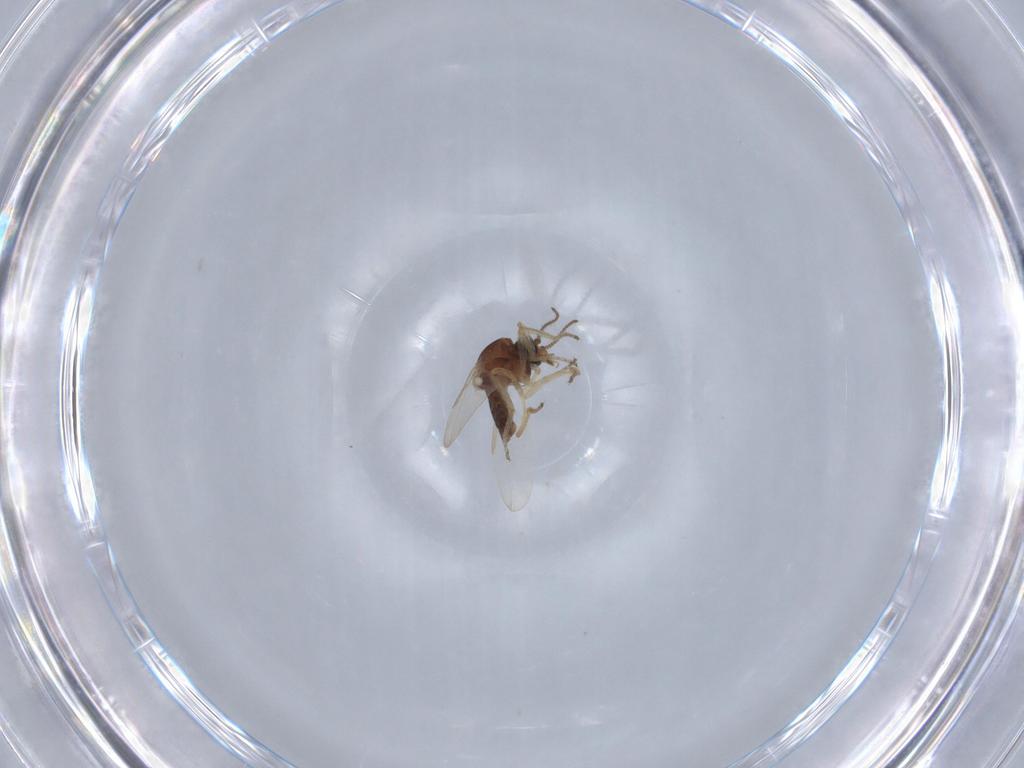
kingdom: Animalia
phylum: Arthropoda
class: Insecta
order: Diptera
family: Ceratopogonidae
